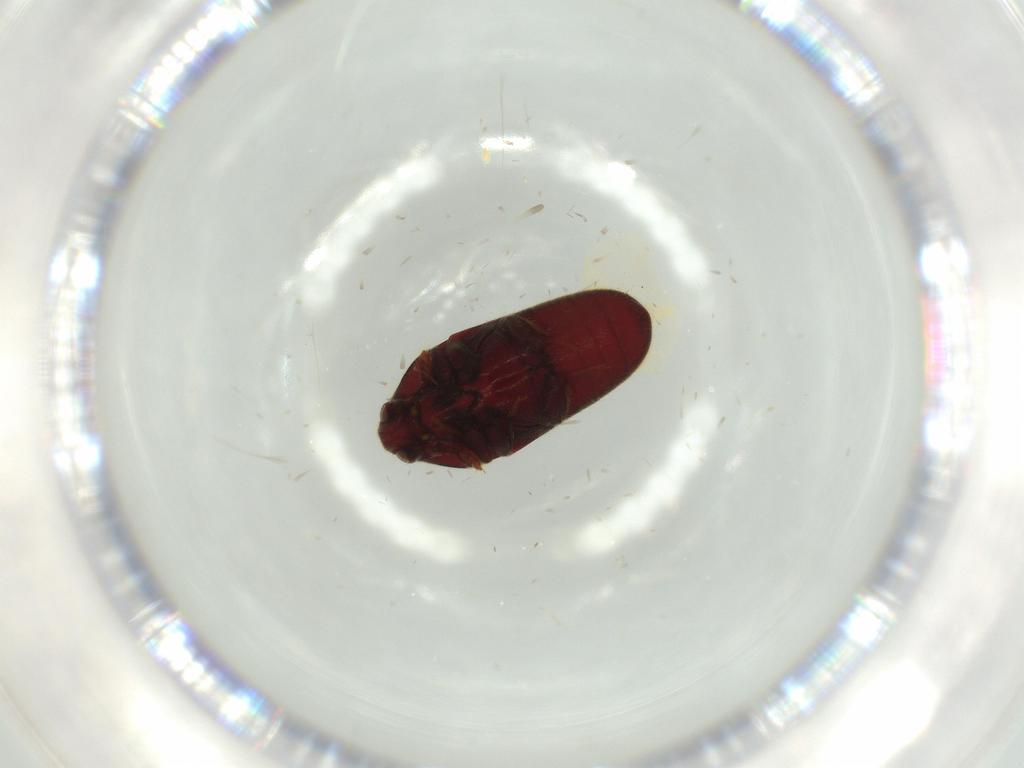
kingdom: Animalia
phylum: Arthropoda
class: Insecta
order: Coleoptera
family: Throscidae
